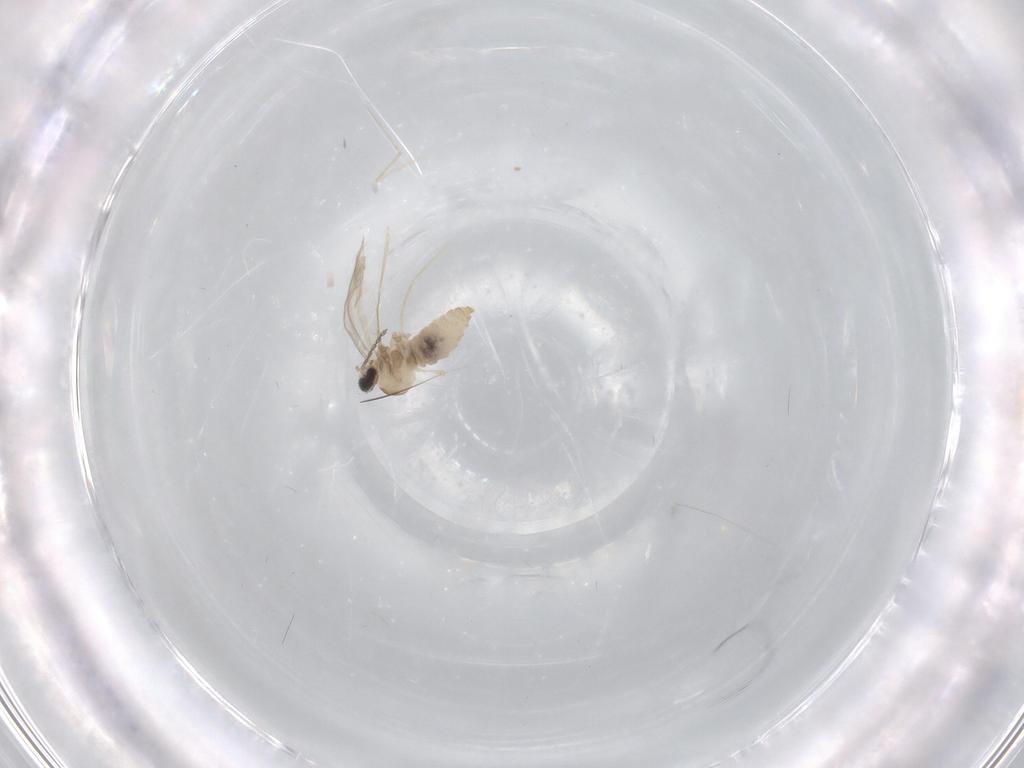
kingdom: Animalia
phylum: Arthropoda
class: Insecta
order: Diptera
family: Cecidomyiidae
